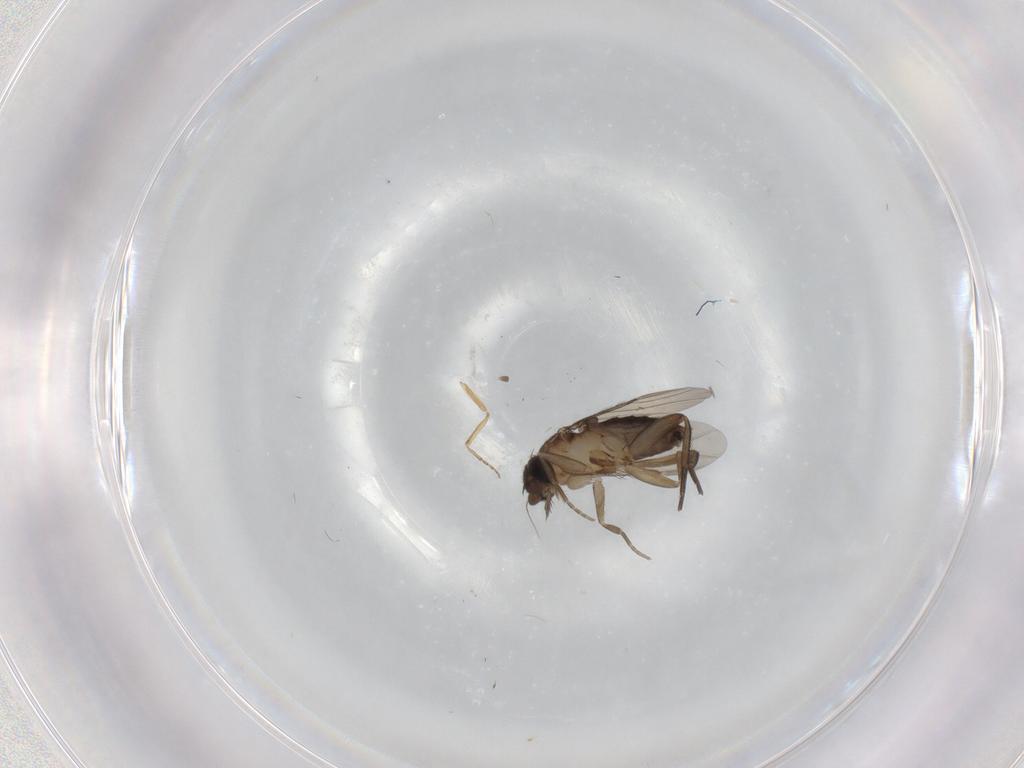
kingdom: Animalia
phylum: Arthropoda
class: Insecta
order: Diptera
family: Phoridae
